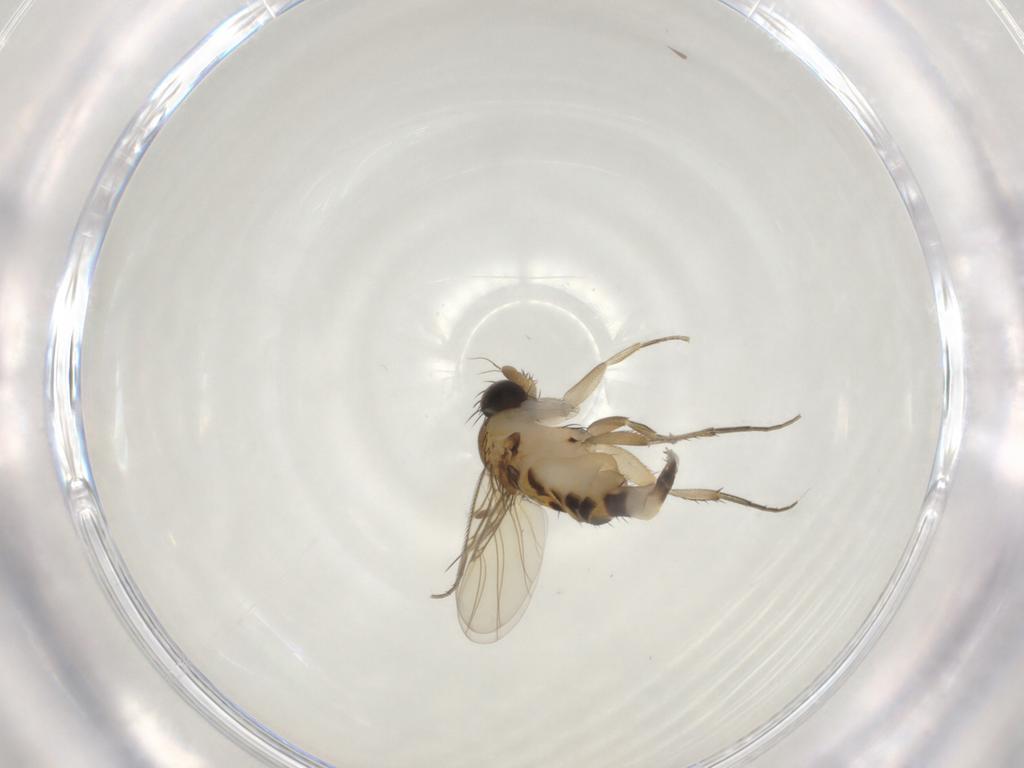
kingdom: Animalia
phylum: Arthropoda
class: Insecta
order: Diptera
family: Phoridae
